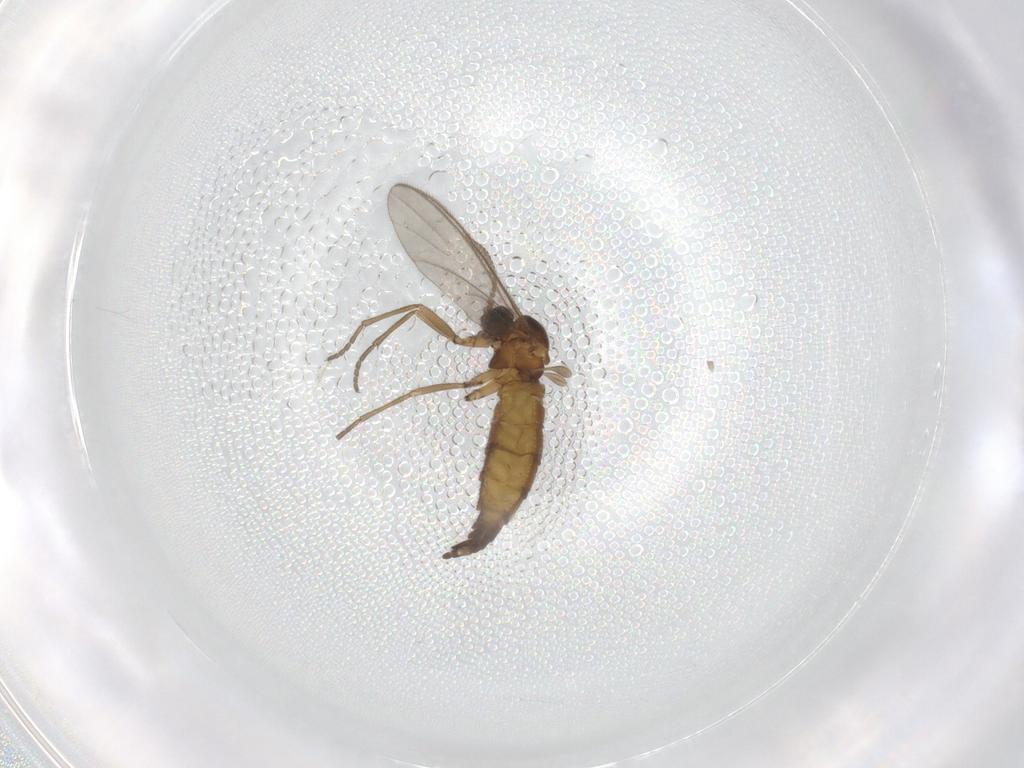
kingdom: Animalia
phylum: Arthropoda
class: Insecta
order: Diptera
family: Sciaridae
